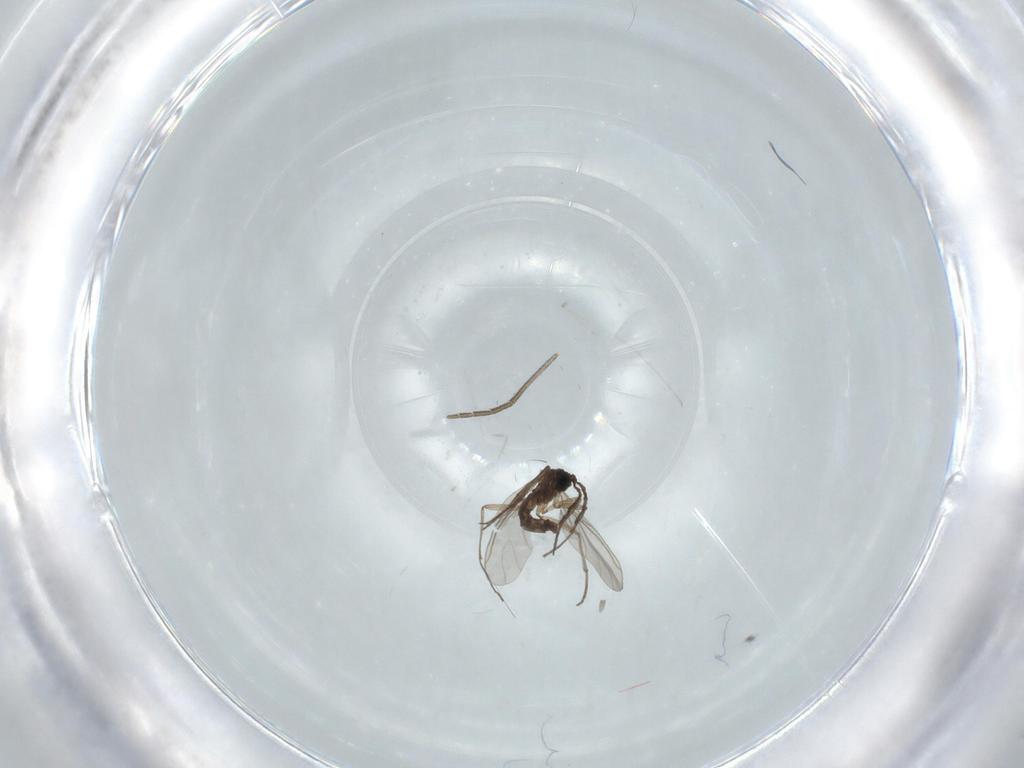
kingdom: Animalia
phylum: Arthropoda
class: Insecta
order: Diptera
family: Sciaridae
